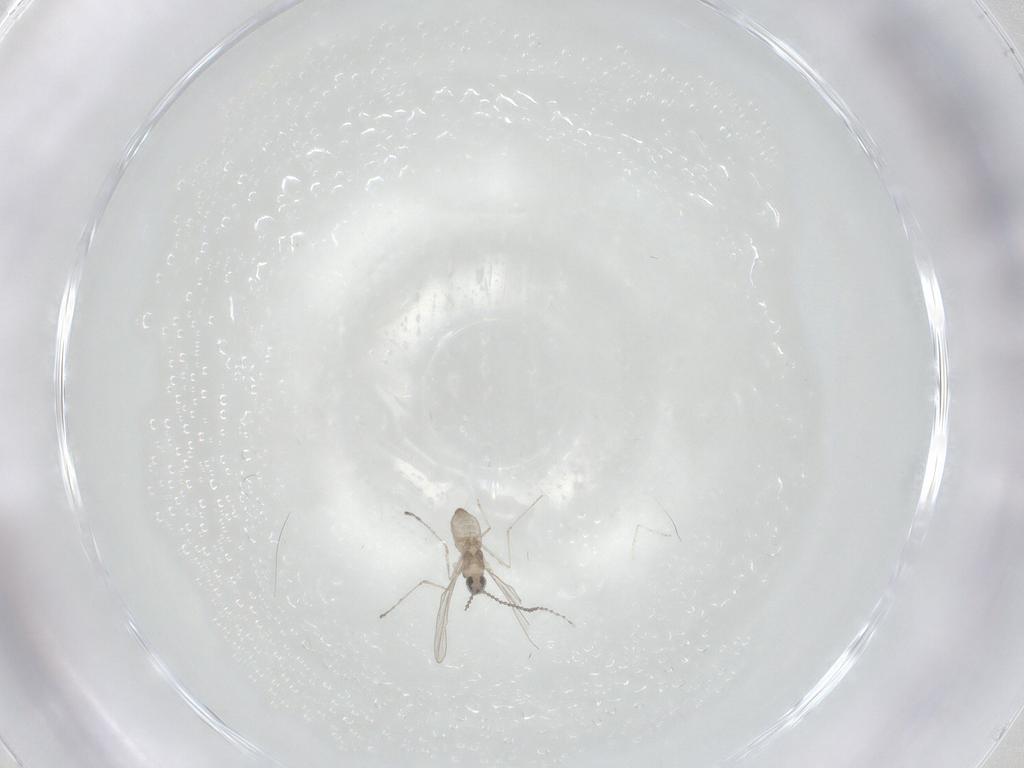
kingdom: Animalia
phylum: Arthropoda
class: Insecta
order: Diptera
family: Cecidomyiidae
